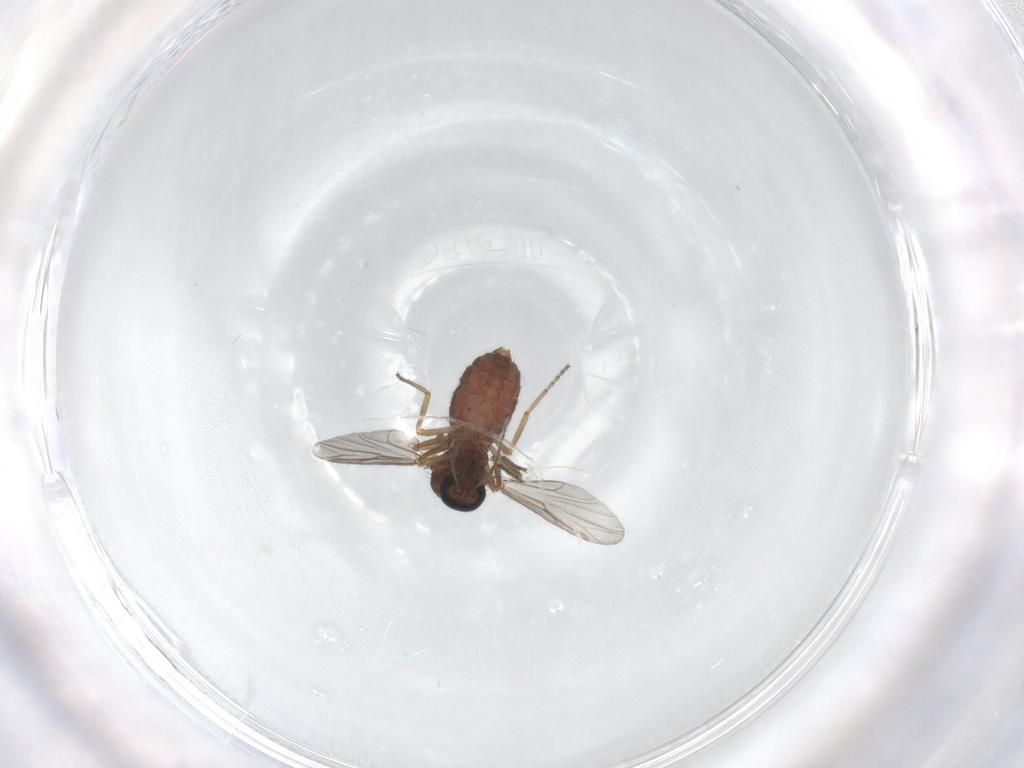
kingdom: Animalia
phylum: Arthropoda
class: Insecta
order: Diptera
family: Ceratopogonidae
